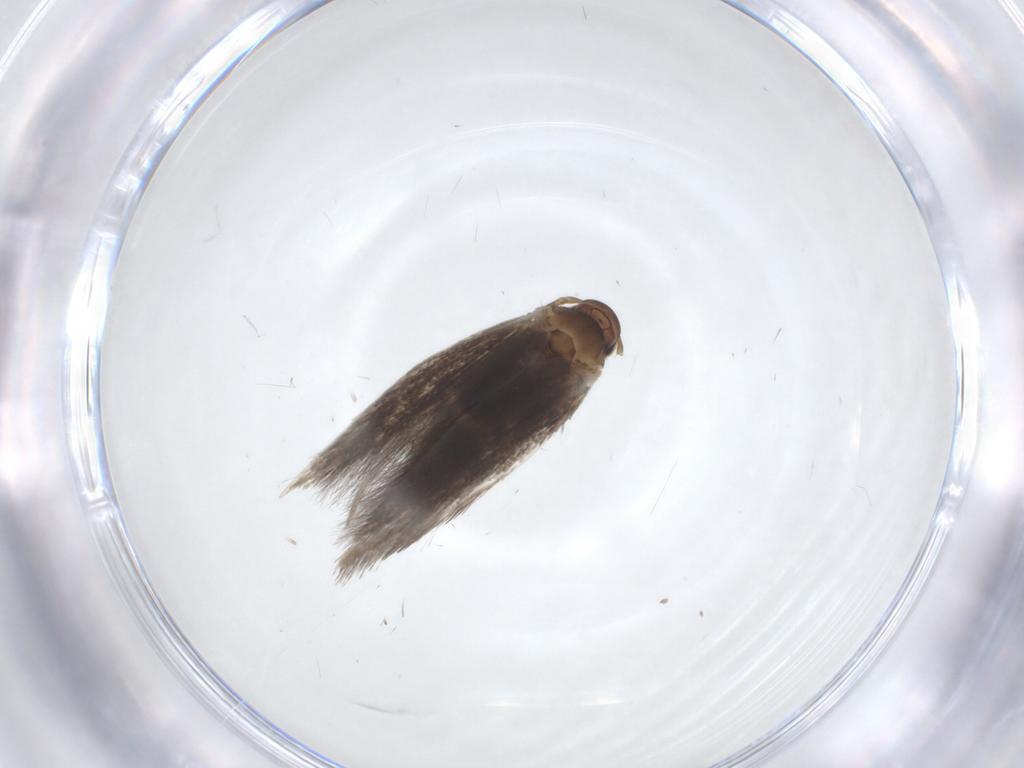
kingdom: Animalia
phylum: Arthropoda
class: Insecta
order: Lepidoptera
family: Elachistidae
